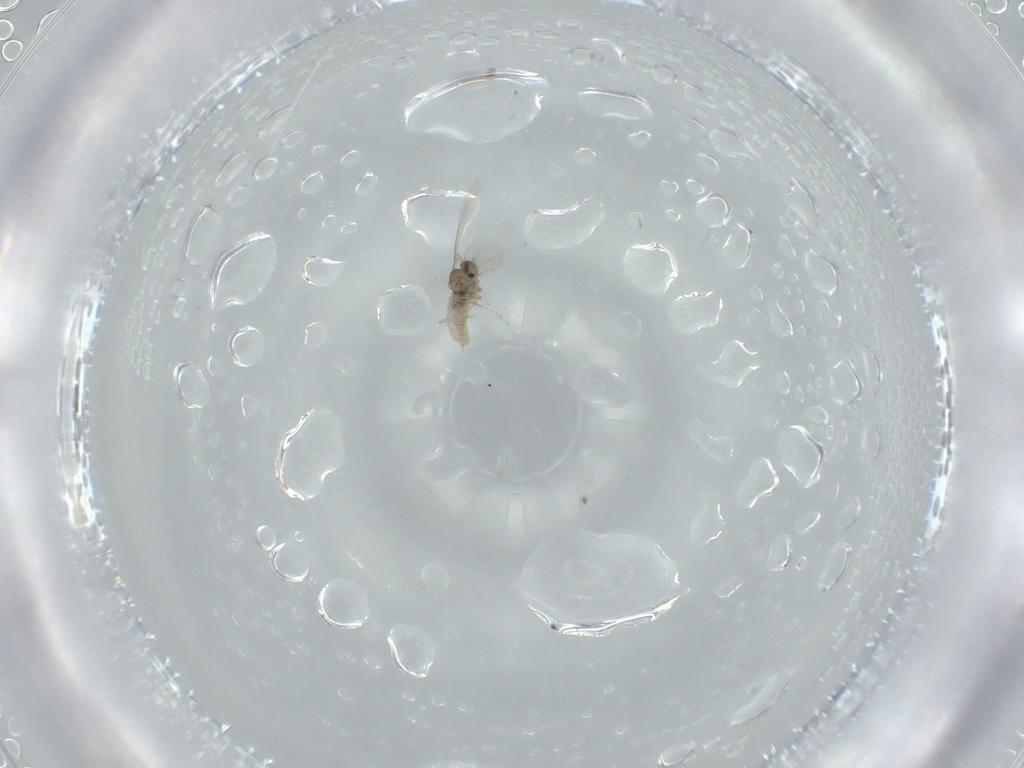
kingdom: Animalia
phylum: Arthropoda
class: Insecta
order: Diptera
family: Cecidomyiidae
